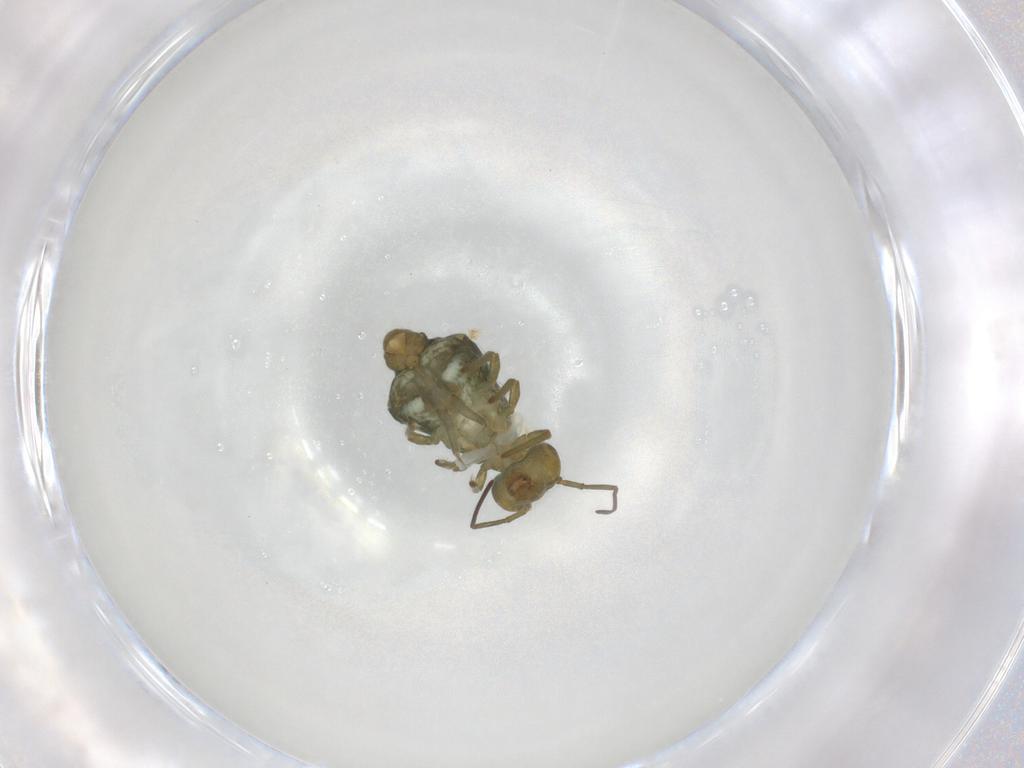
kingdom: Animalia
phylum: Arthropoda
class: Collembola
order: Symphypleona
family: Sminthuridae
